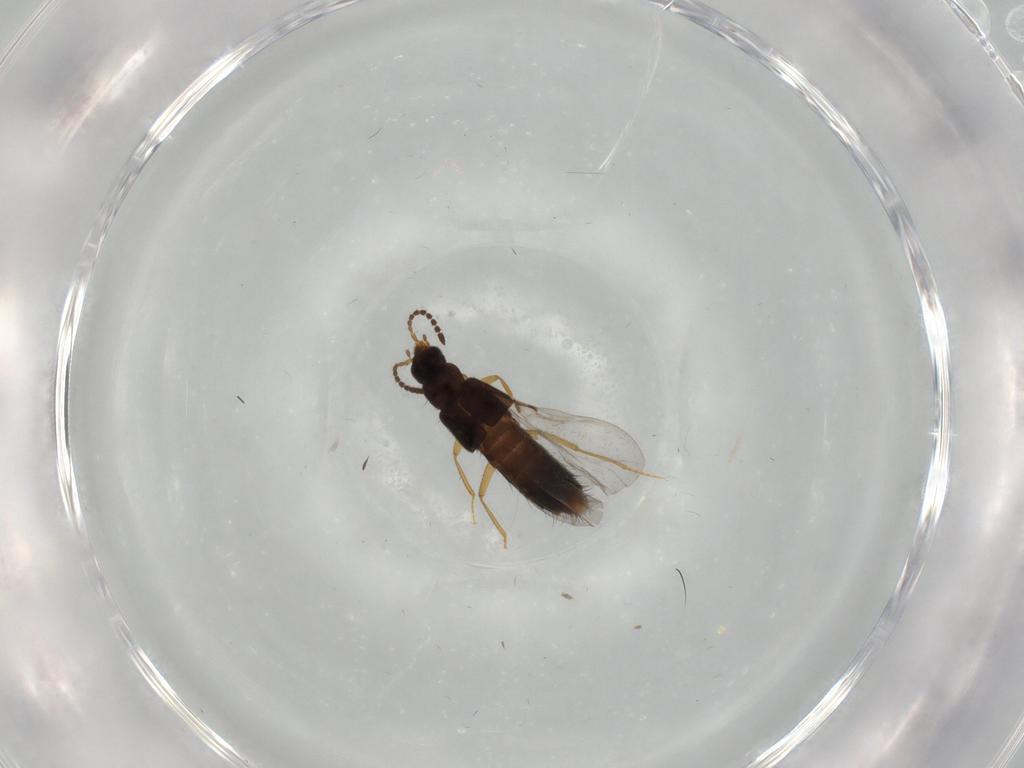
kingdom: Animalia
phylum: Arthropoda
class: Insecta
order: Coleoptera
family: Staphylinidae
